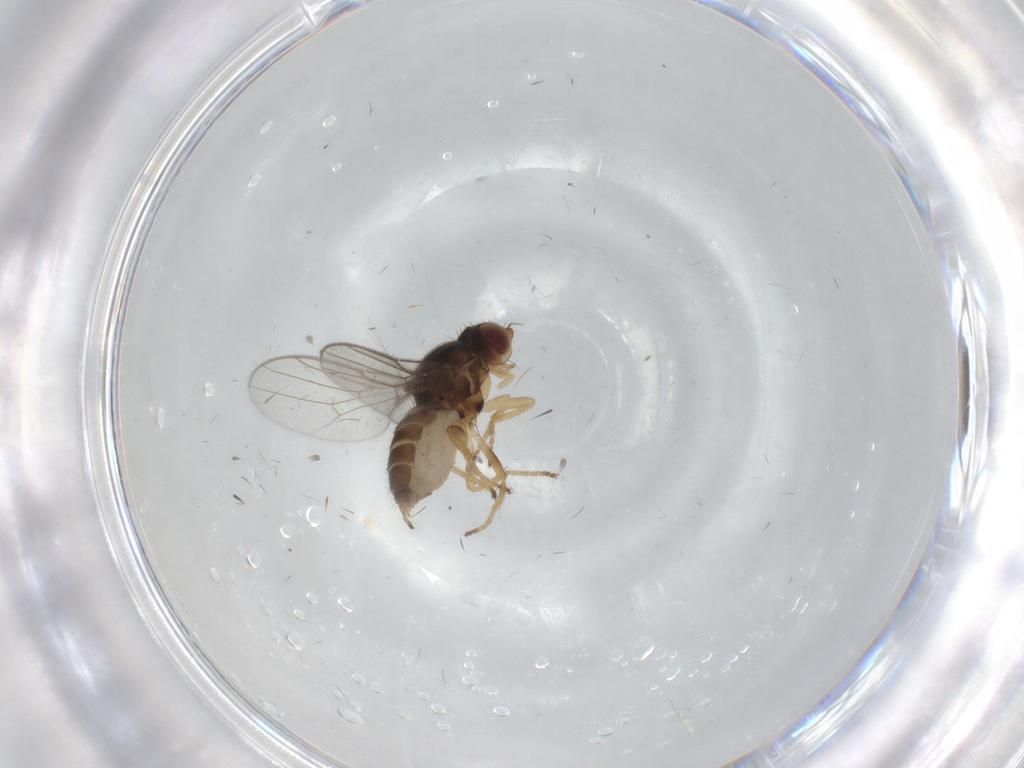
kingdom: Animalia
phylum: Arthropoda
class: Insecta
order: Diptera
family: Chloropidae
